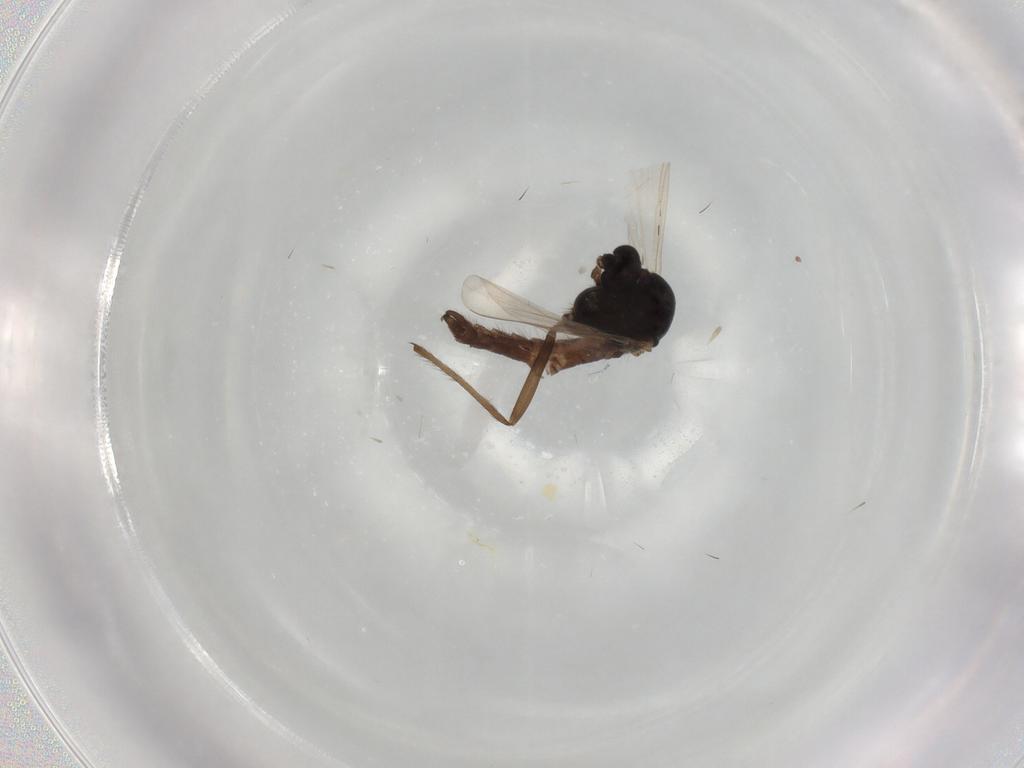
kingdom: Animalia
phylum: Arthropoda
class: Insecta
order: Diptera
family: Chironomidae
